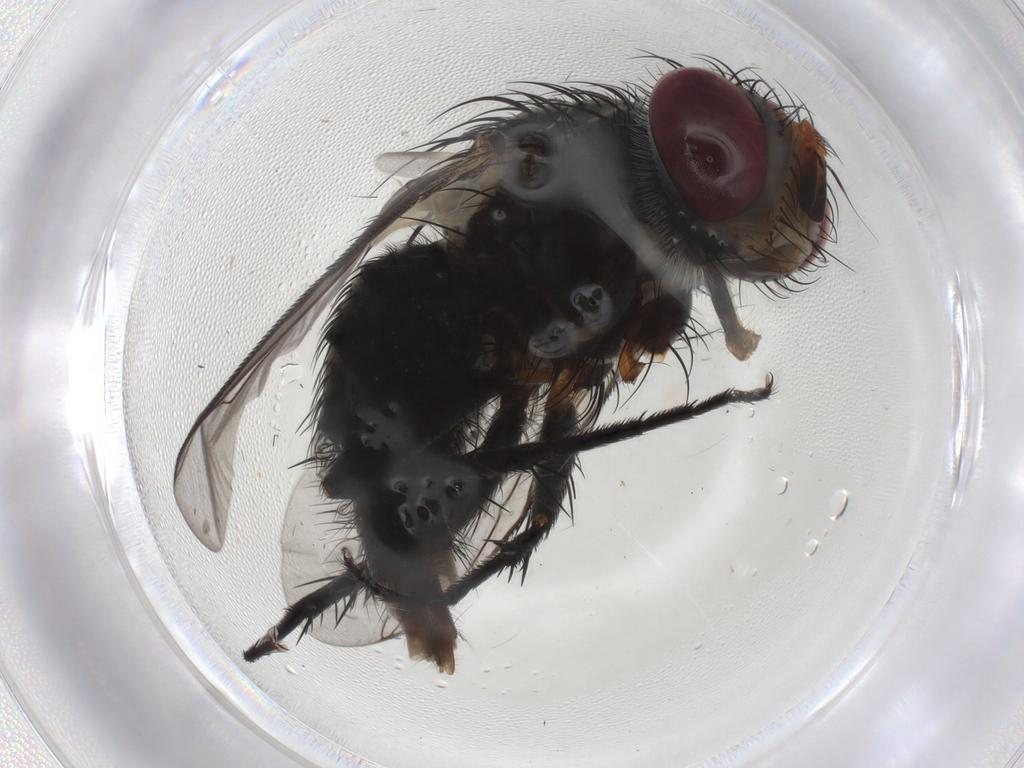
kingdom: Animalia
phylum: Arthropoda
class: Insecta
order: Diptera
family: Tachinidae
